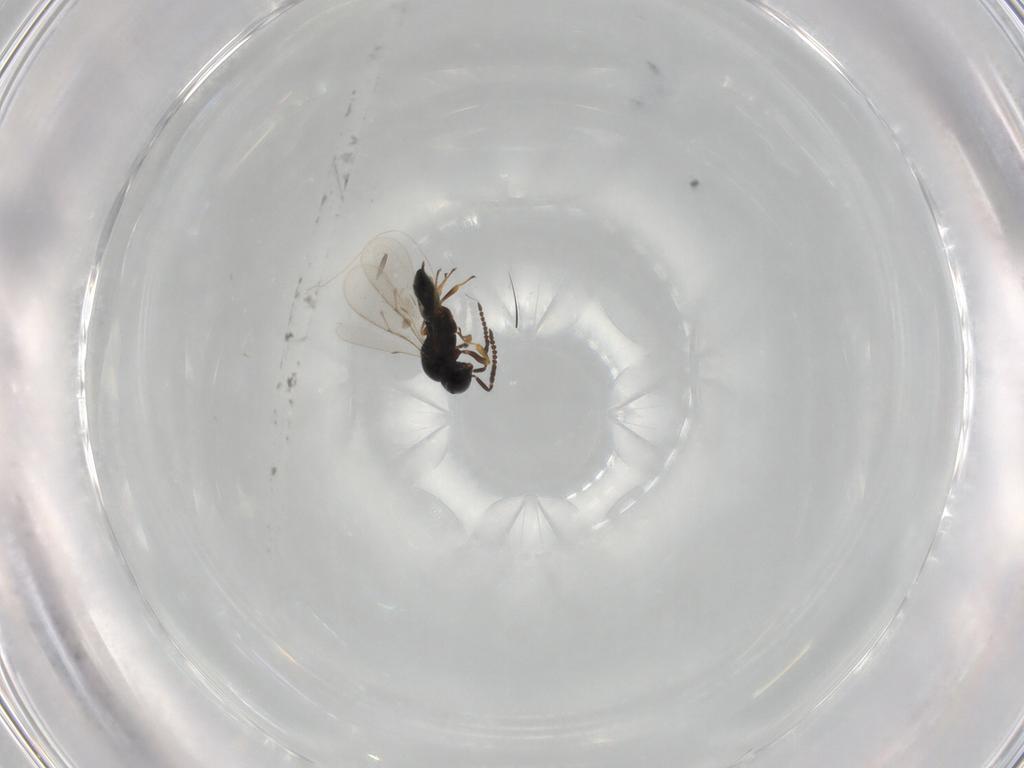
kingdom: Animalia
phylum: Arthropoda
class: Insecta
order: Hymenoptera
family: Scelionidae
